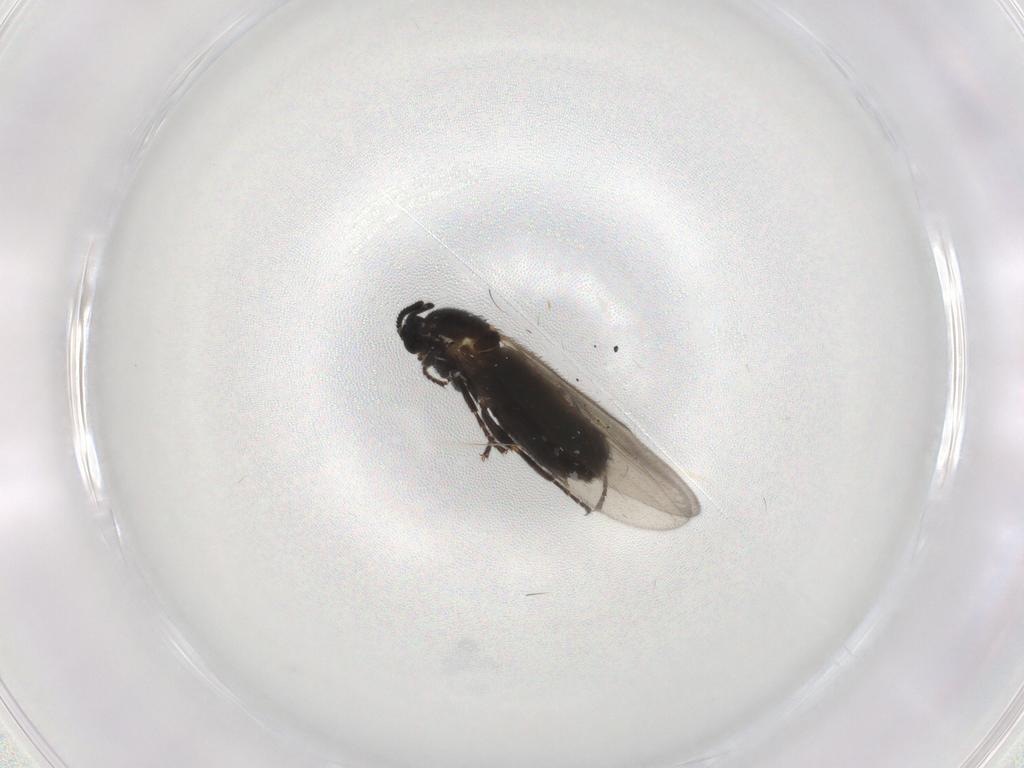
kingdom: Animalia
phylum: Arthropoda
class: Insecta
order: Diptera
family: Scatopsidae
